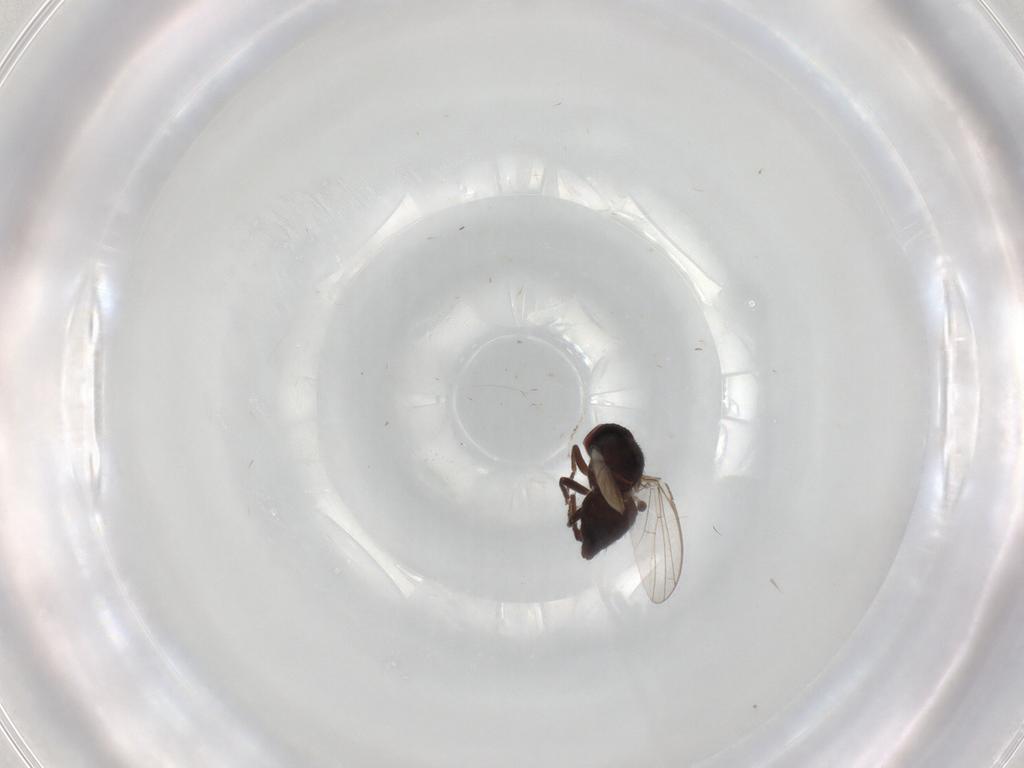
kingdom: Animalia
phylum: Arthropoda
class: Insecta
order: Diptera
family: Agromyzidae
